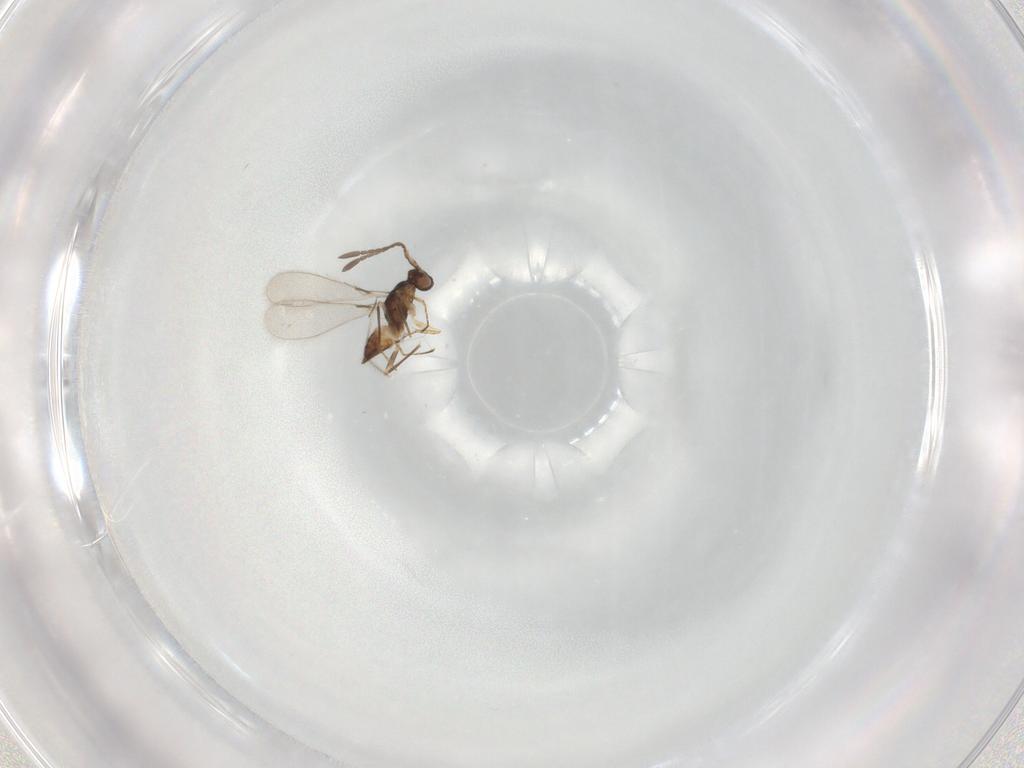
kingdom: Animalia
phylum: Arthropoda
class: Insecta
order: Hymenoptera
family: Mymaridae
